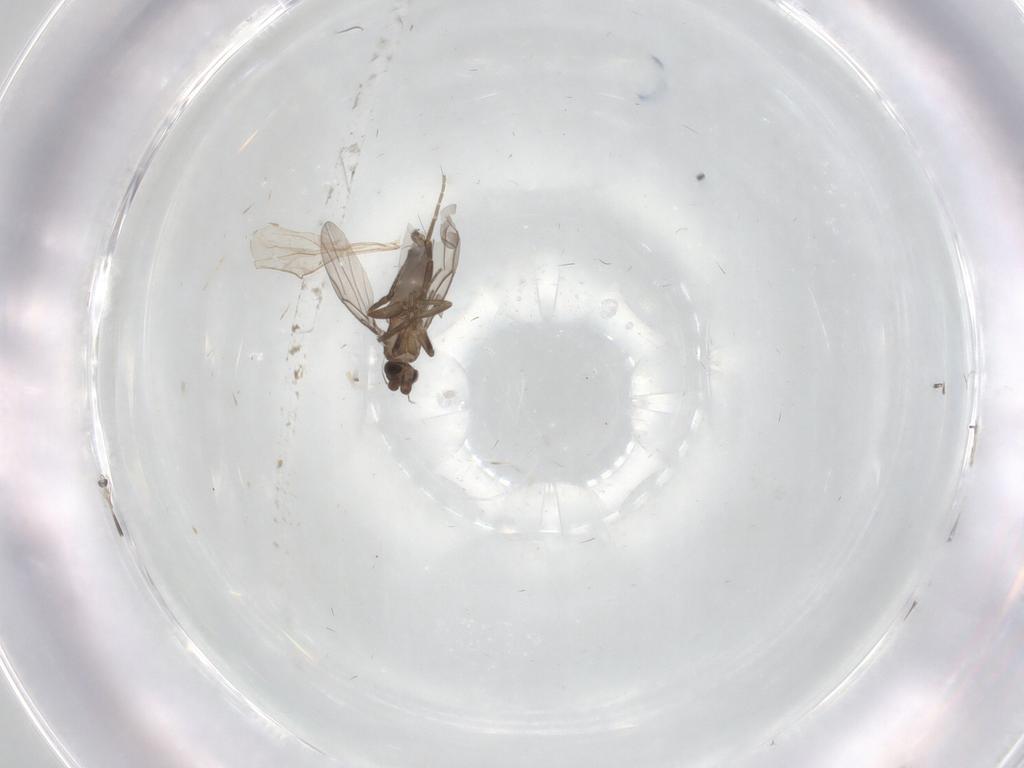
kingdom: Animalia
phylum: Arthropoda
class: Insecta
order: Diptera
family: Phoridae
